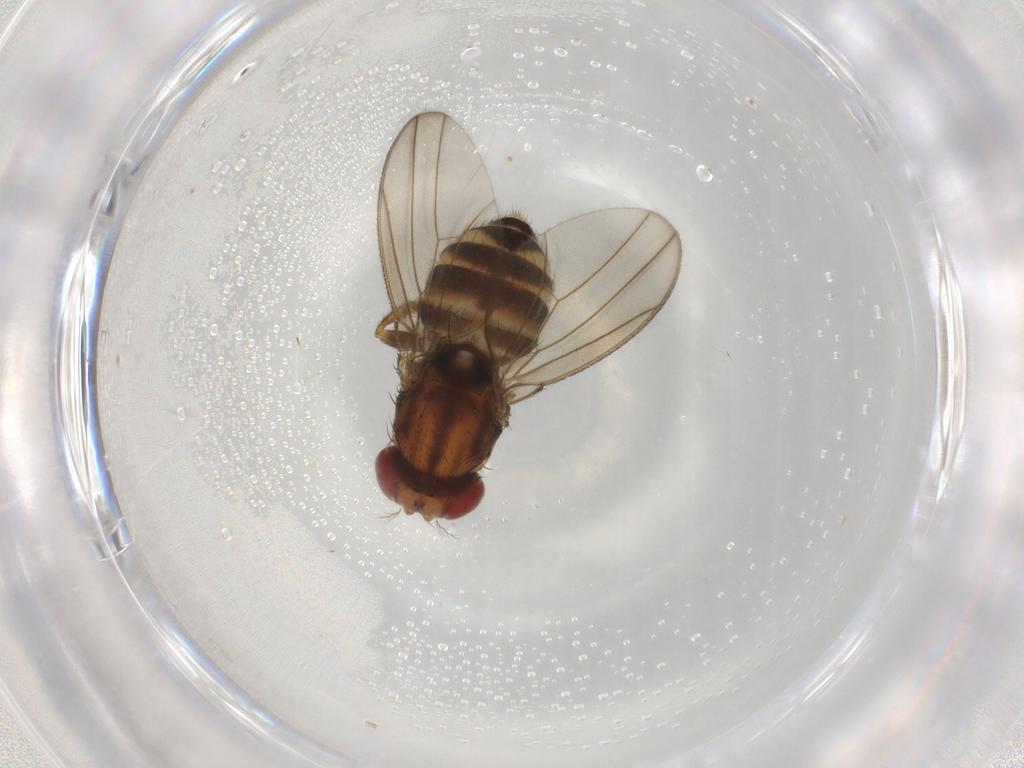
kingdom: Animalia
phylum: Arthropoda
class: Insecta
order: Diptera
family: Drosophilidae
